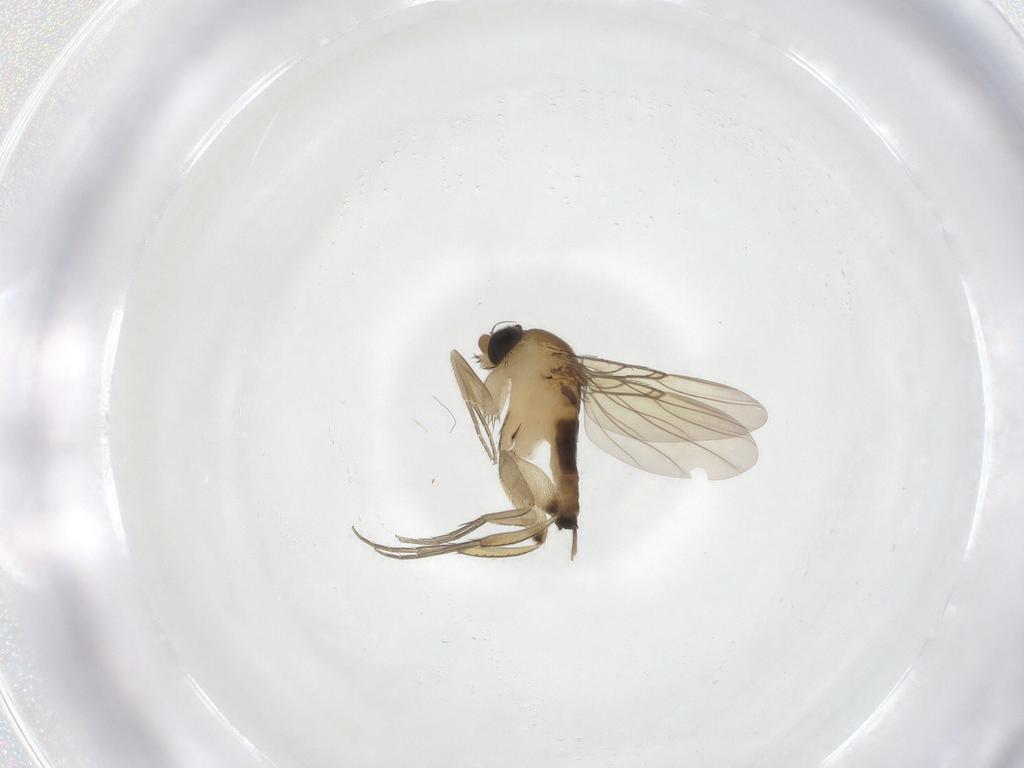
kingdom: Animalia
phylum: Arthropoda
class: Insecta
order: Diptera
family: Phoridae
